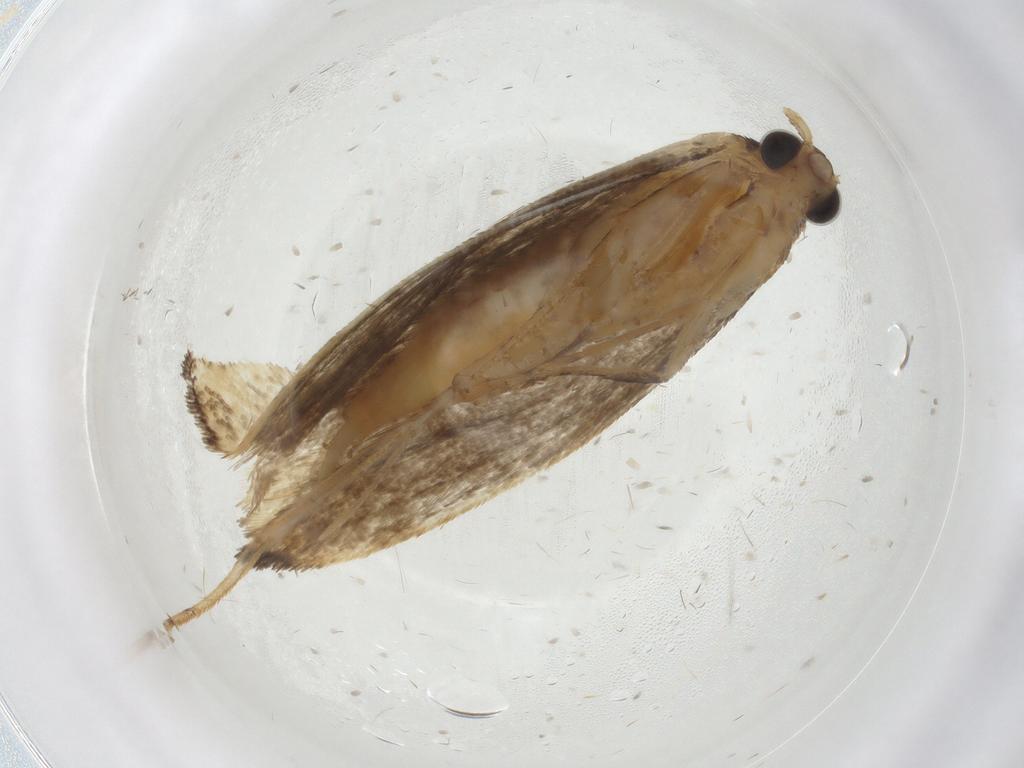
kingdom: Animalia
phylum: Arthropoda
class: Insecta
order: Lepidoptera
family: Tineidae
